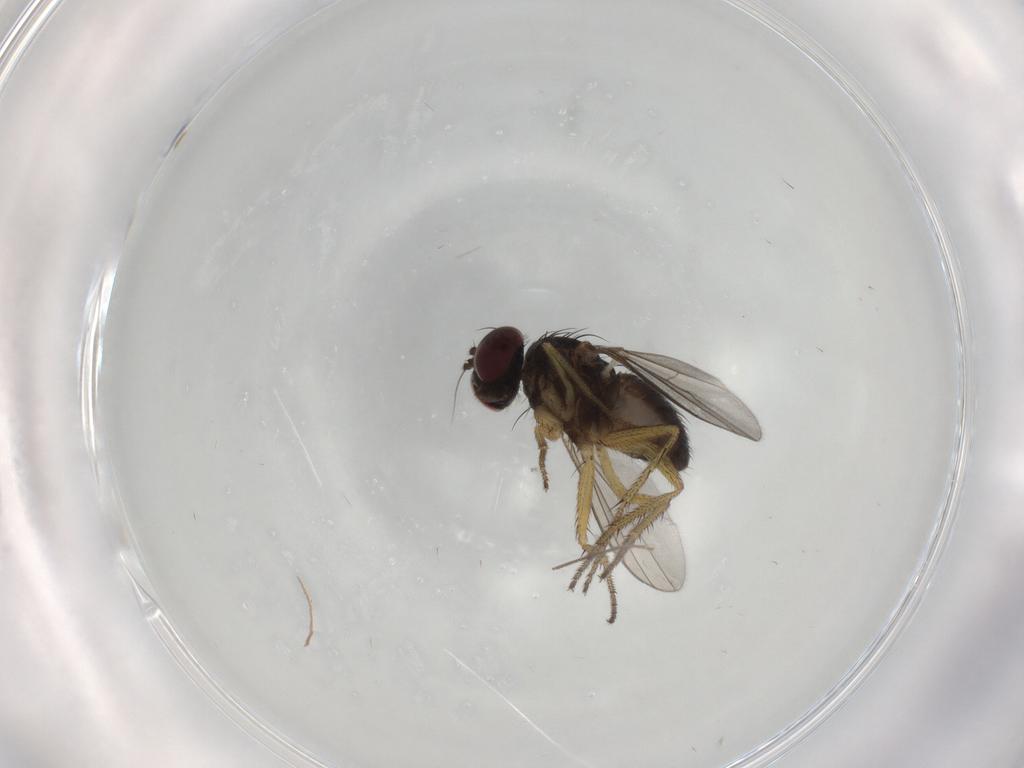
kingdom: Animalia
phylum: Arthropoda
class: Insecta
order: Diptera
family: Dolichopodidae
